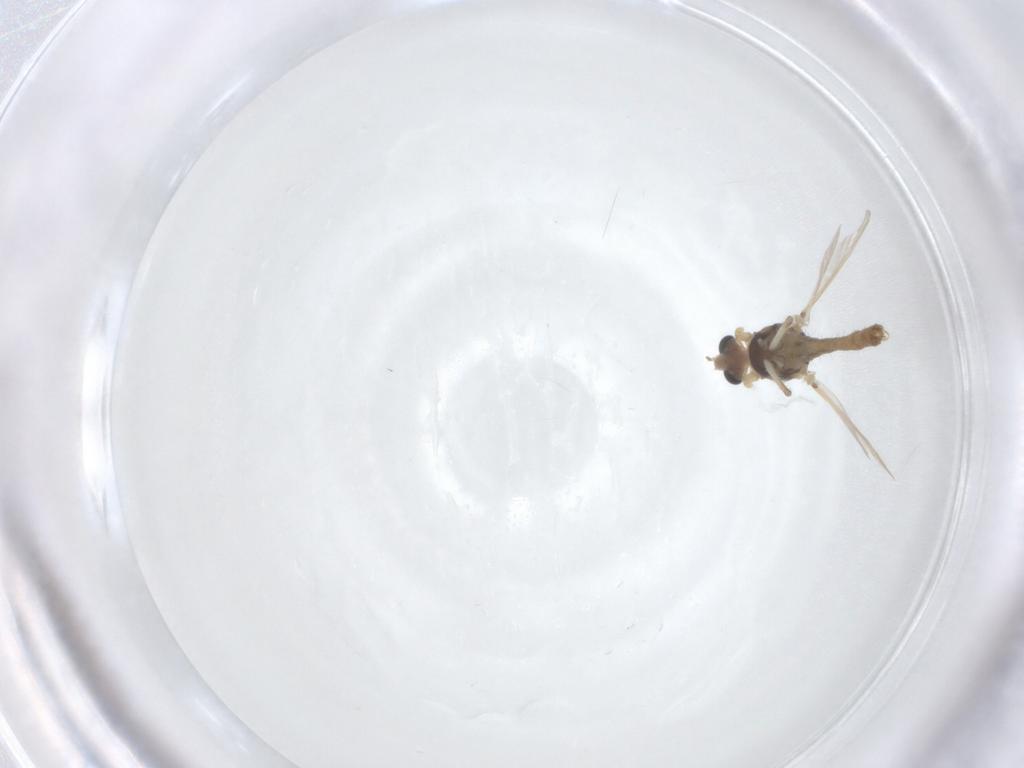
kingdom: Animalia
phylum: Arthropoda
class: Insecta
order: Diptera
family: Chironomidae
